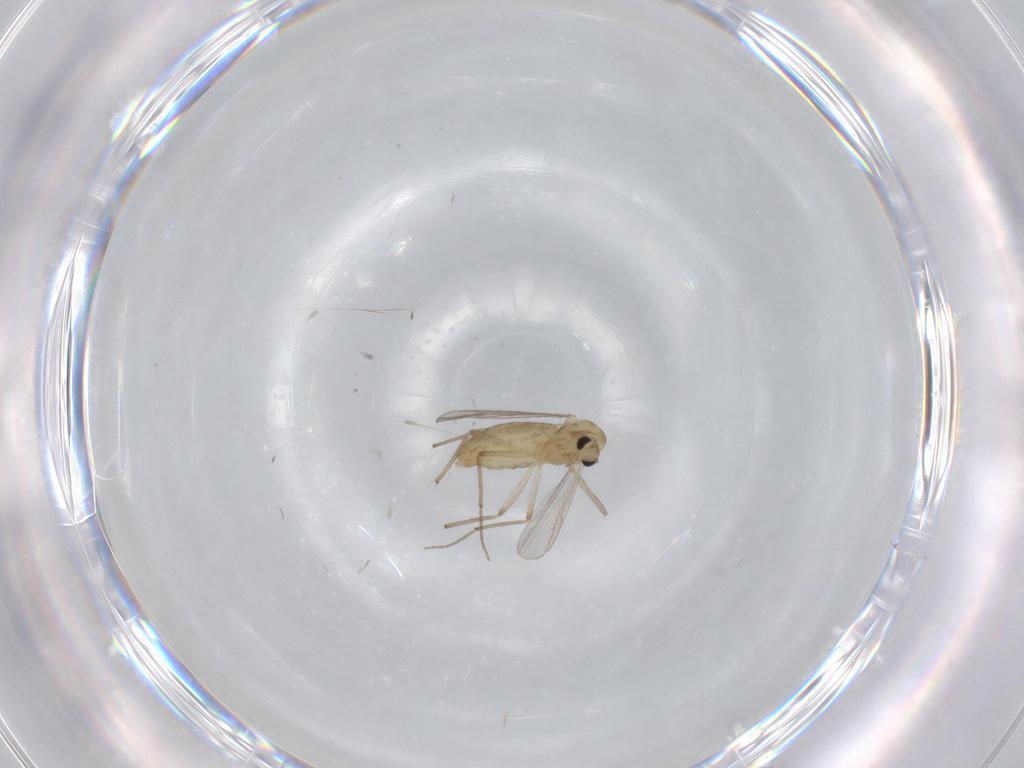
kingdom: Animalia
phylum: Arthropoda
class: Insecta
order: Diptera
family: Chironomidae
